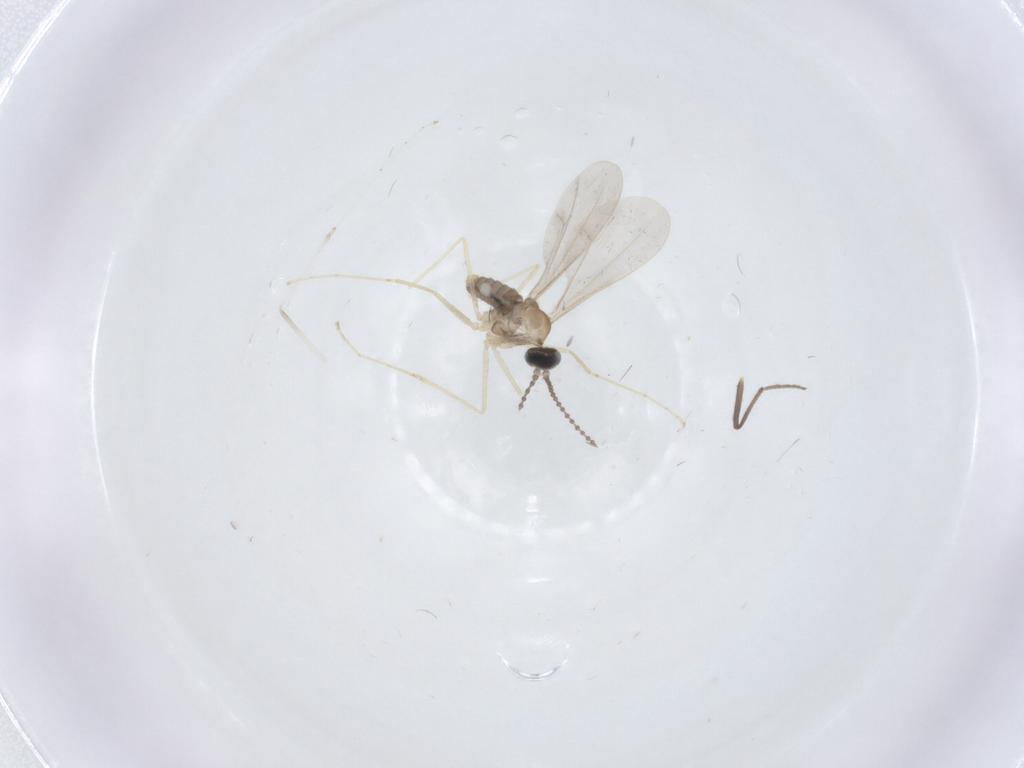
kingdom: Animalia
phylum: Arthropoda
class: Insecta
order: Diptera
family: Cecidomyiidae
